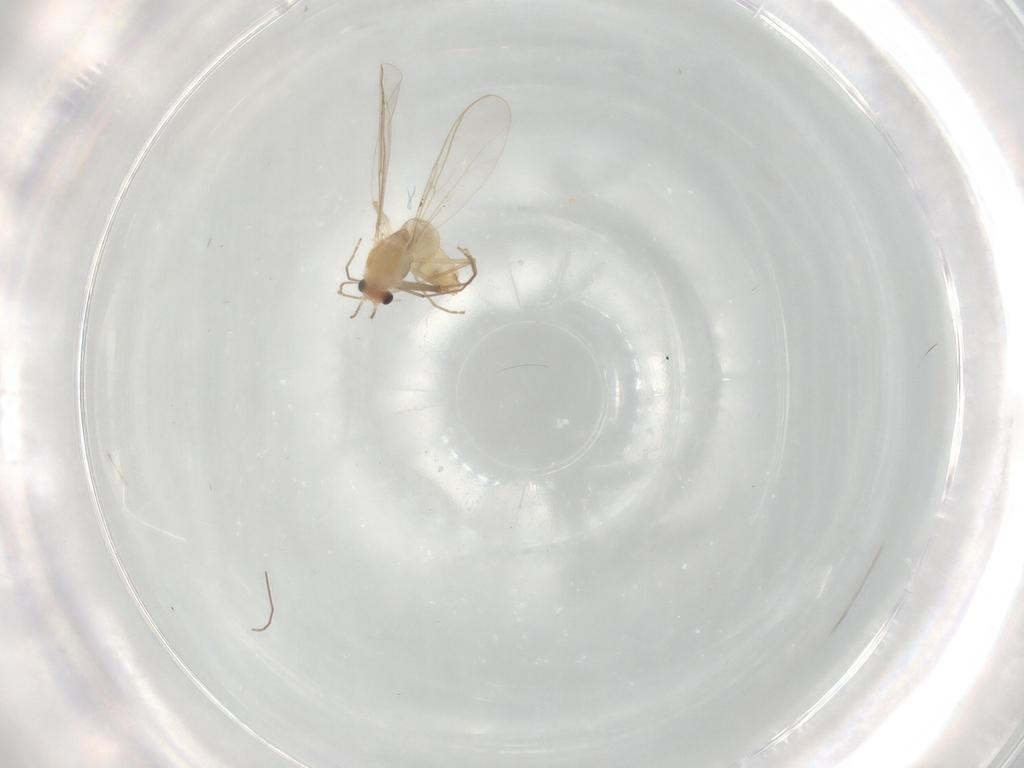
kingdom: Animalia
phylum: Arthropoda
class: Insecta
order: Diptera
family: Chironomidae
